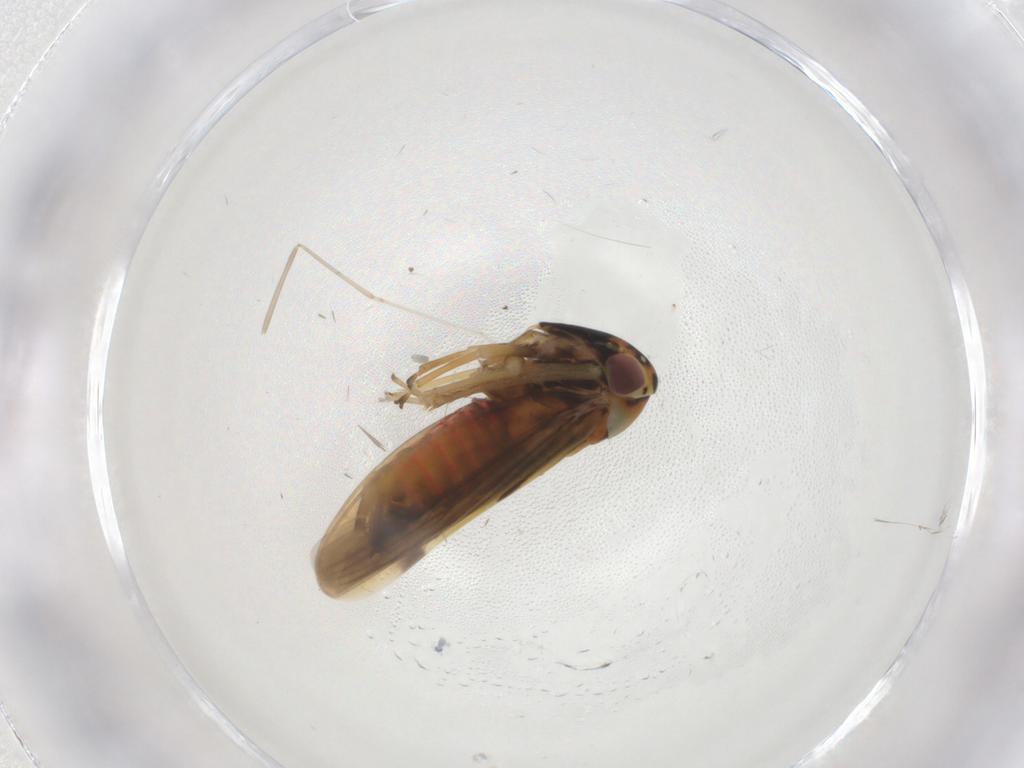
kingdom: Animalia
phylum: Arthropoda
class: Insecta
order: Hemiptera
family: Cicadellidae
